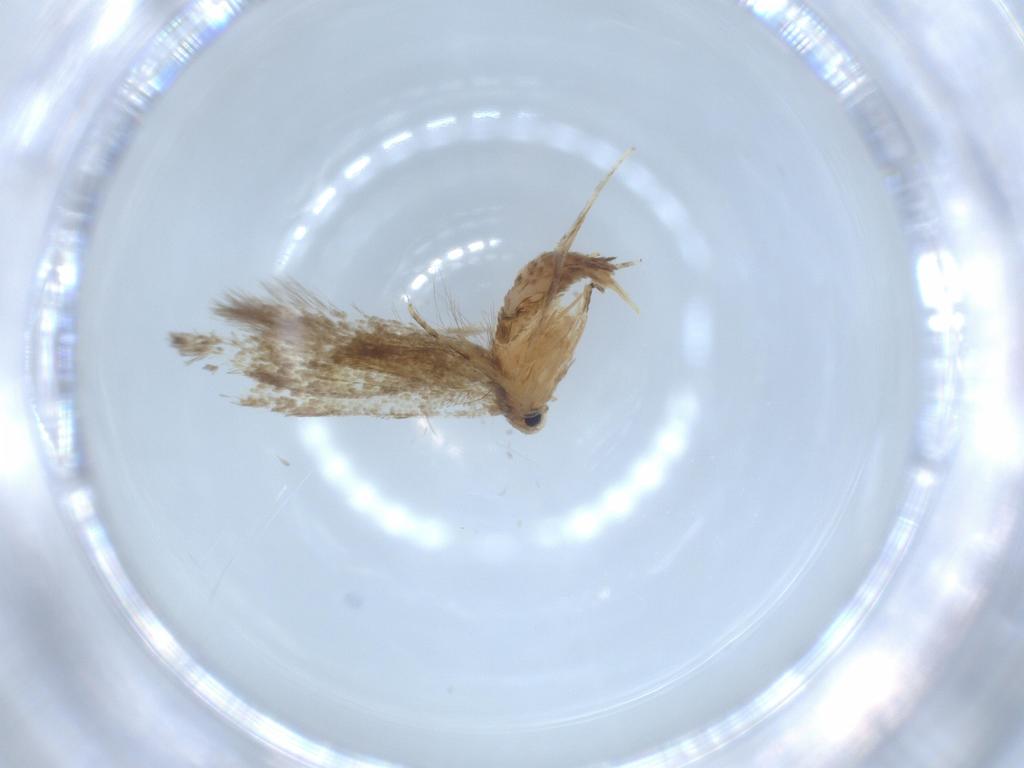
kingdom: Animalia
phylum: Arthropoda
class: Insecta
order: Lepidoptera
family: Tineidae
